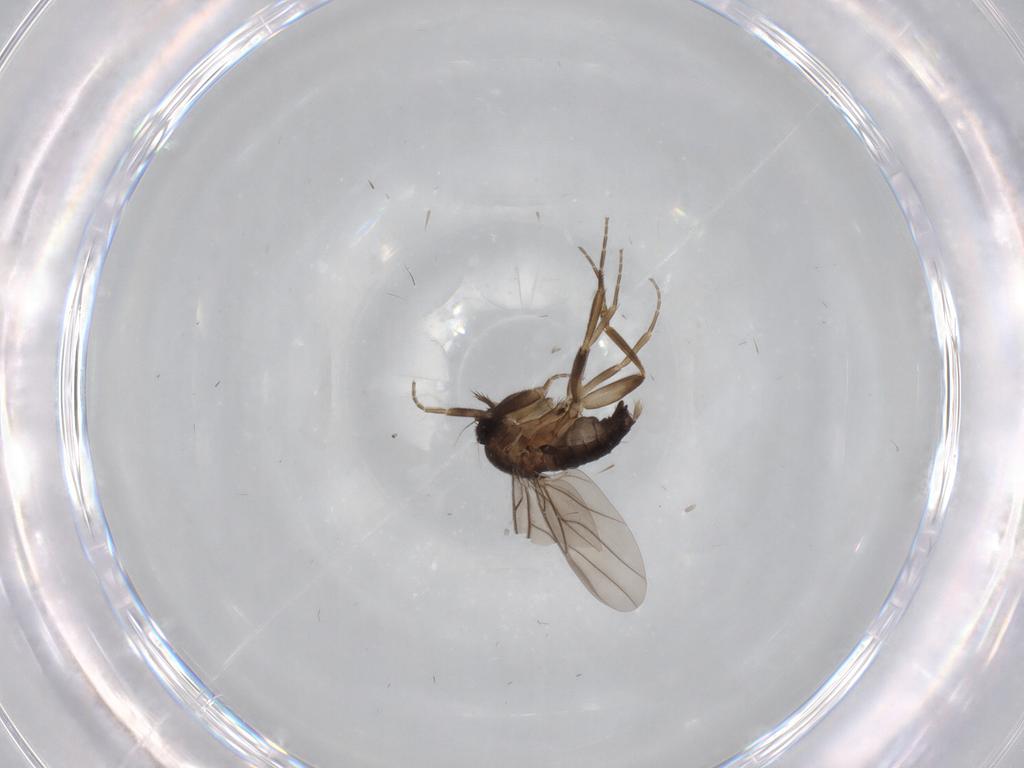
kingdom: Animalia
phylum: Arthropoda
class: Insecta
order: Diptera
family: Phoridae
